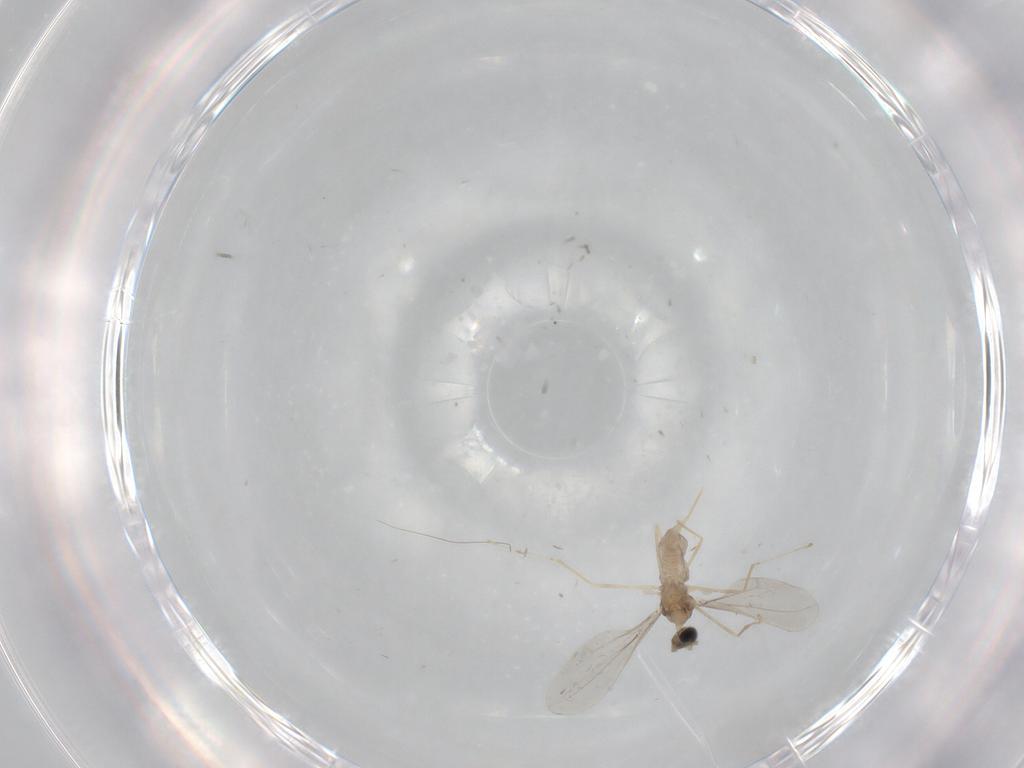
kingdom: Animalia
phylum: Arthropoda
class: Insecta
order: Diptera
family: Cecidomyiidae
